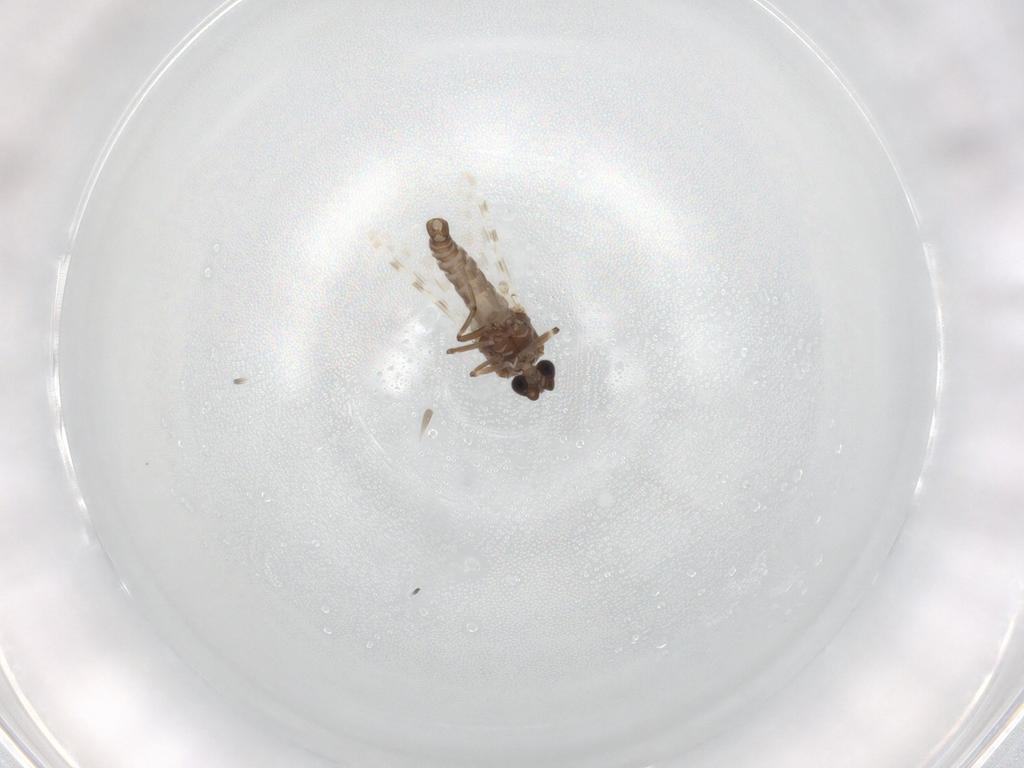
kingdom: Animalia
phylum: Arthropoda
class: Insecta
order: Diptera
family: Ceratopogonidae
